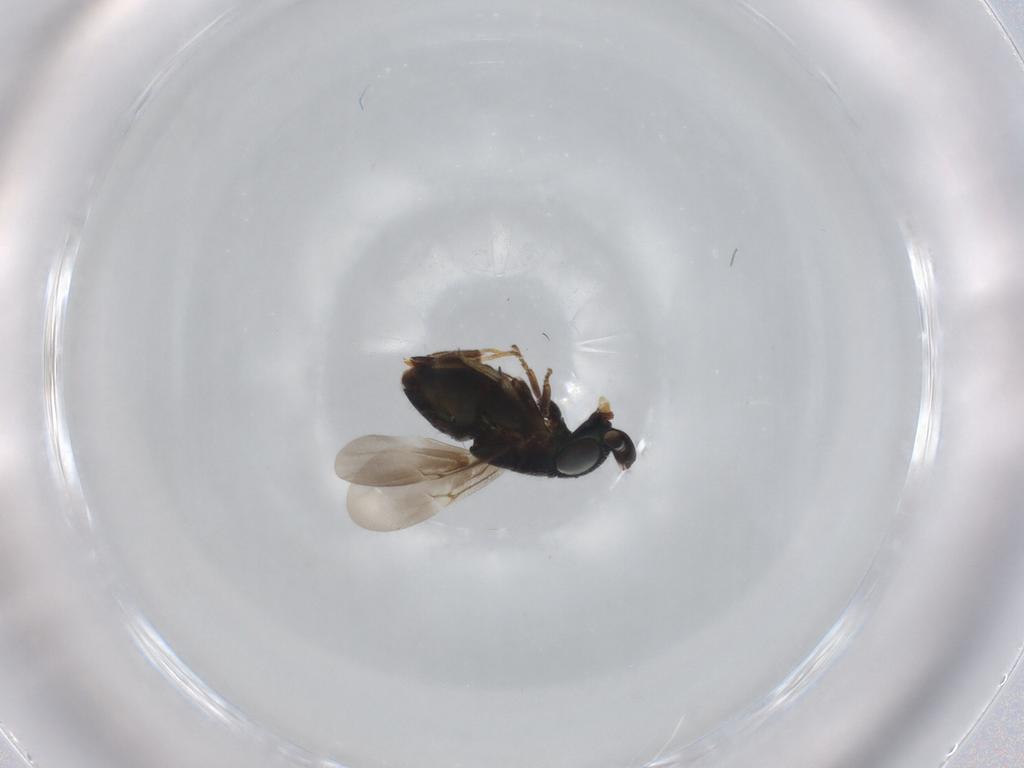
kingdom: Animalia
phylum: Arthropoda
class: Insecta
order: Hymenoptera
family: Encyrtidae
